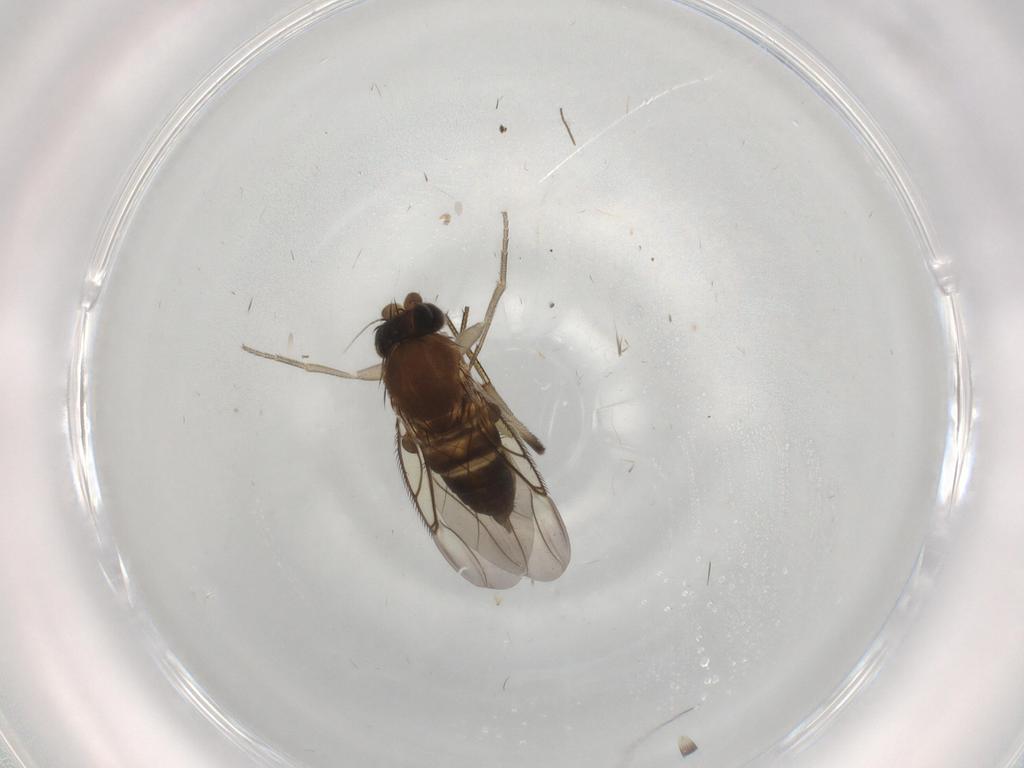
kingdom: Animalia
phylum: Arthropoda
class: Insecta
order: Diptera
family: Phoridae
